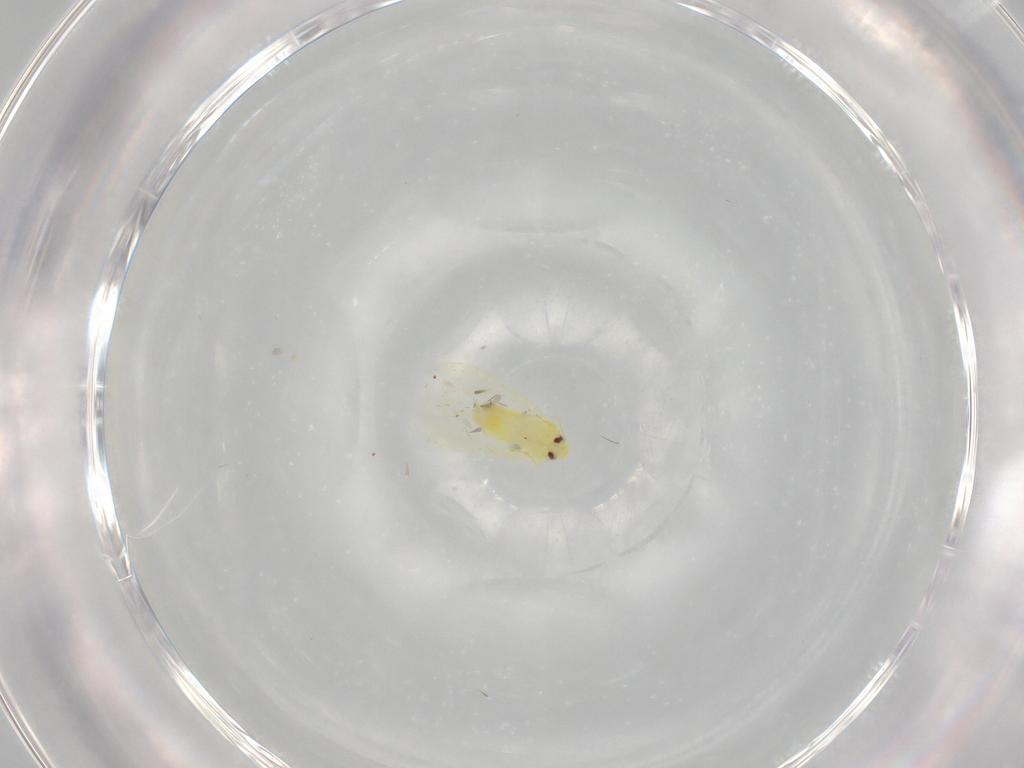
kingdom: Animalia
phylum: Arthropoda
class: Insecta
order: Hemiptera
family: Aleyrodidae
